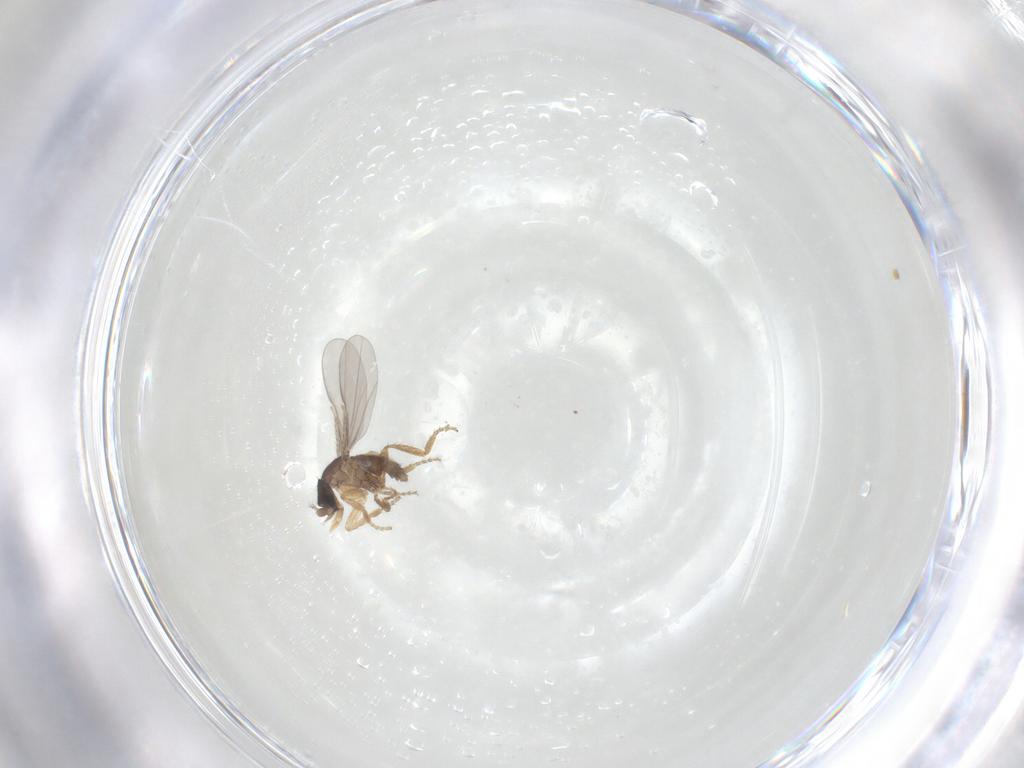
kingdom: Animalia
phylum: Arthropoda
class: Insecta
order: Diptera
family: Phoridae
